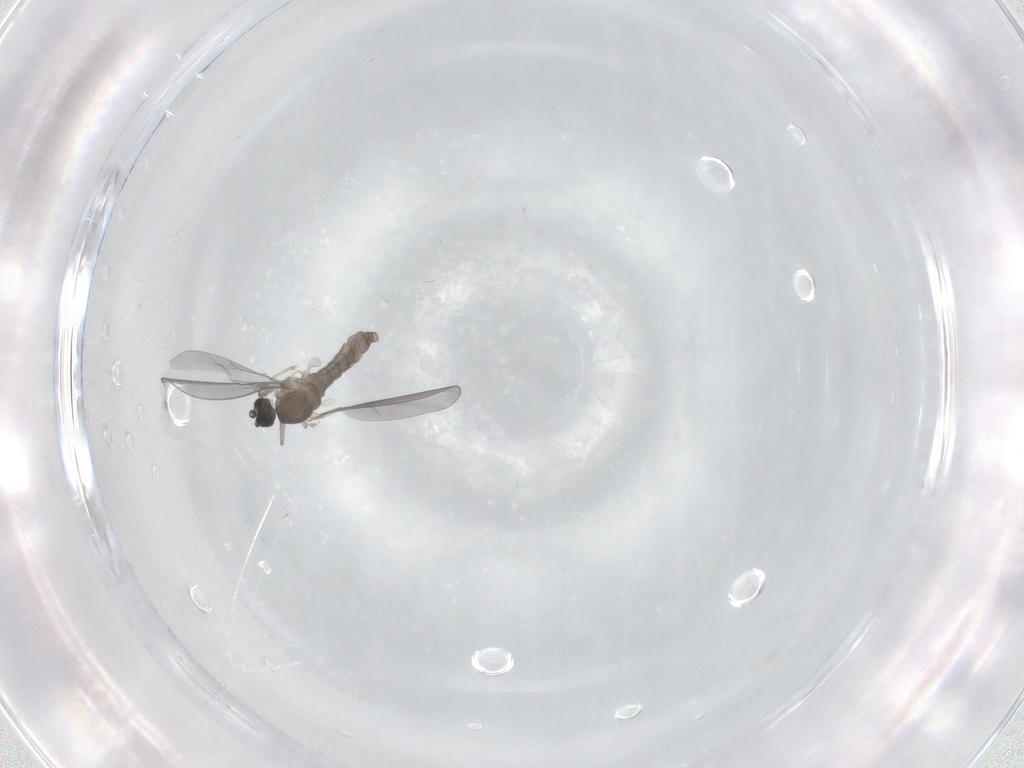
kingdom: Animalia
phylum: Arthropoda
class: Insecta
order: Diptera
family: Cecidomyiidae
